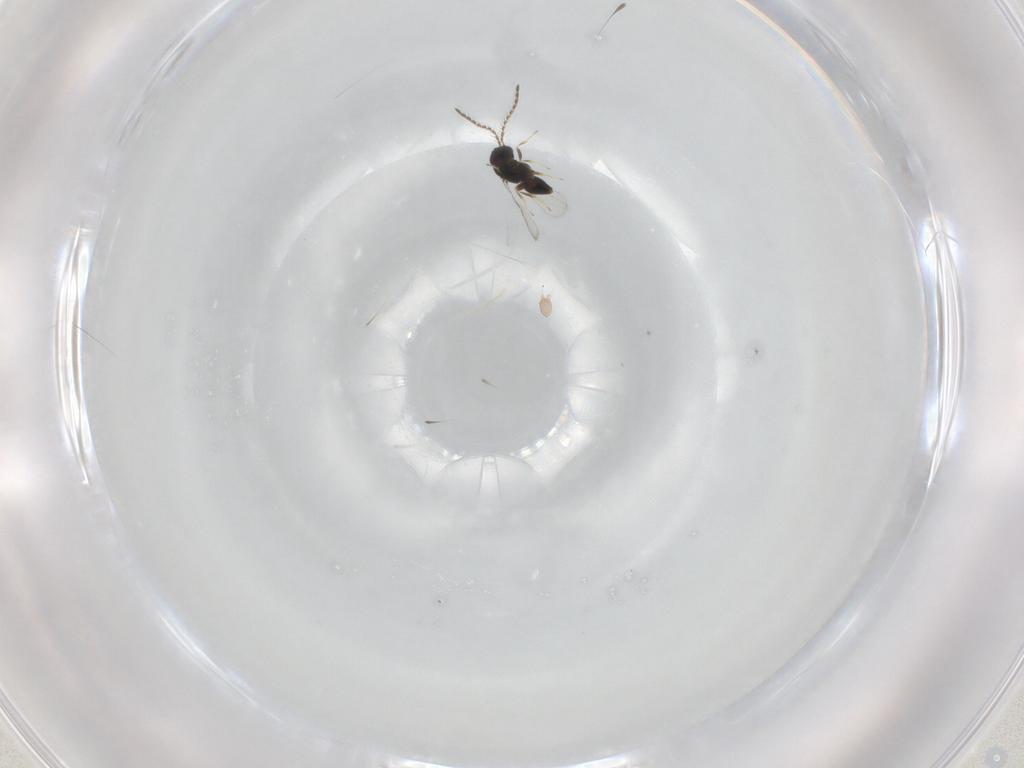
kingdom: Animalia
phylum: Arthropoda
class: Insecta
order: Hymenoptera
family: Ceraphronidae
